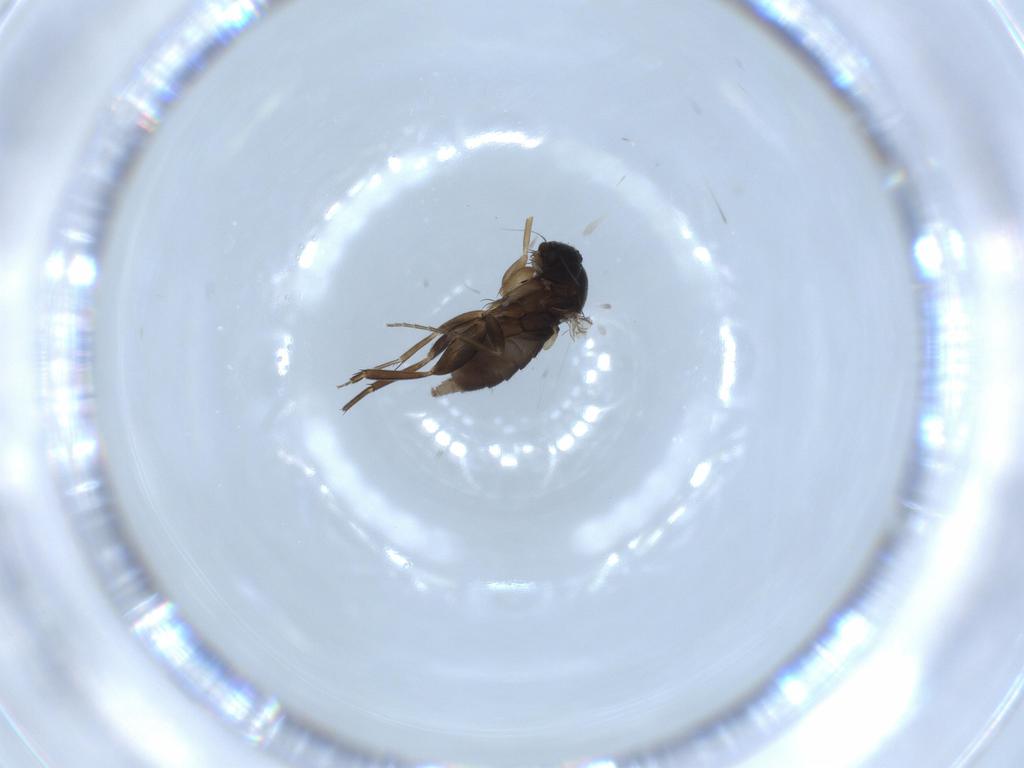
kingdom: Animalia
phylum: Arthropoda
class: Insecta
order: Diptera
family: Phoridae
